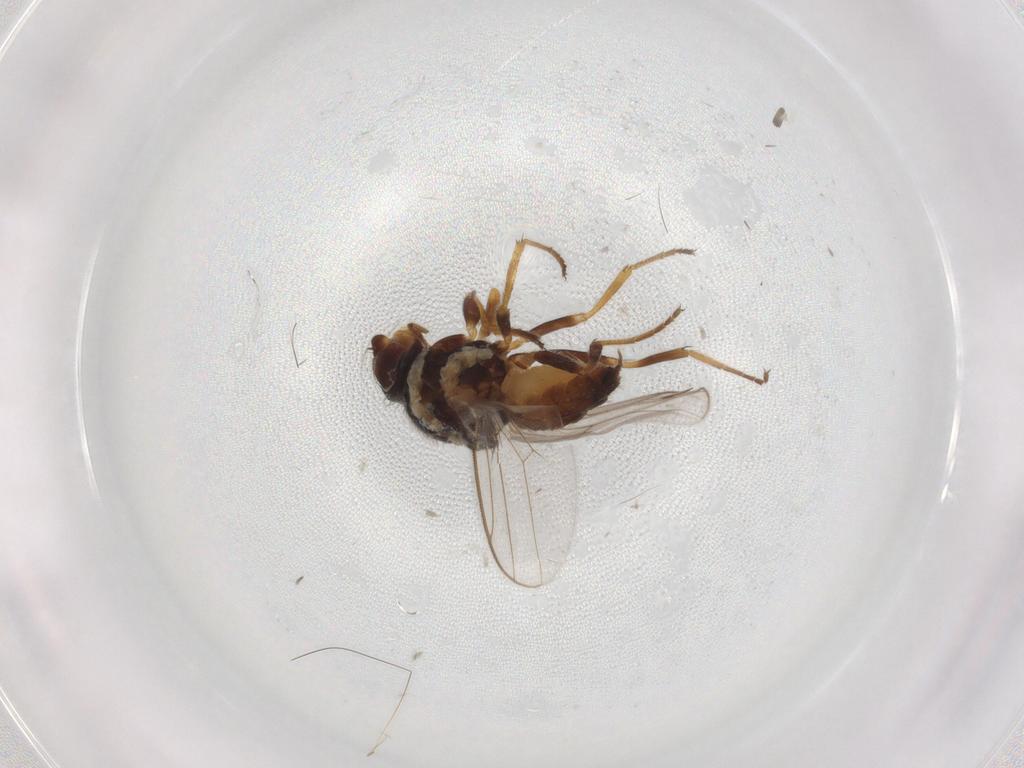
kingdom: Animalia
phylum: Arthropoda
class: Insecta
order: Diptera
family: Chloropidae
